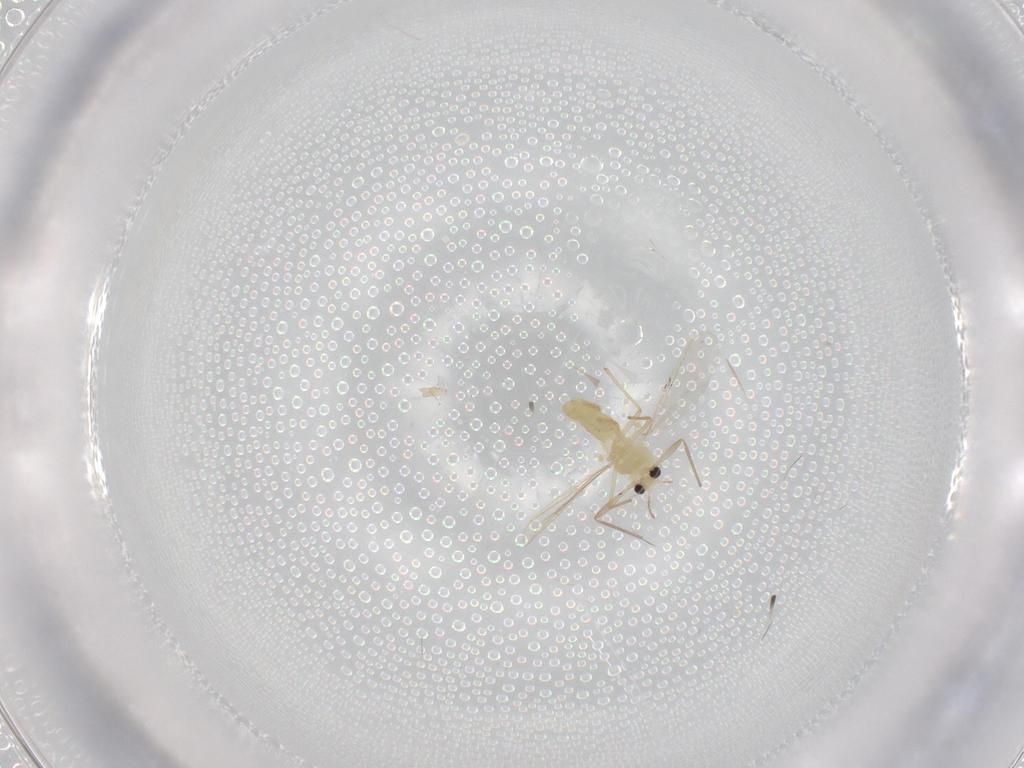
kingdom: Animalia
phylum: Arthropoda
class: Insecta
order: Diptera
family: Chironomidae
